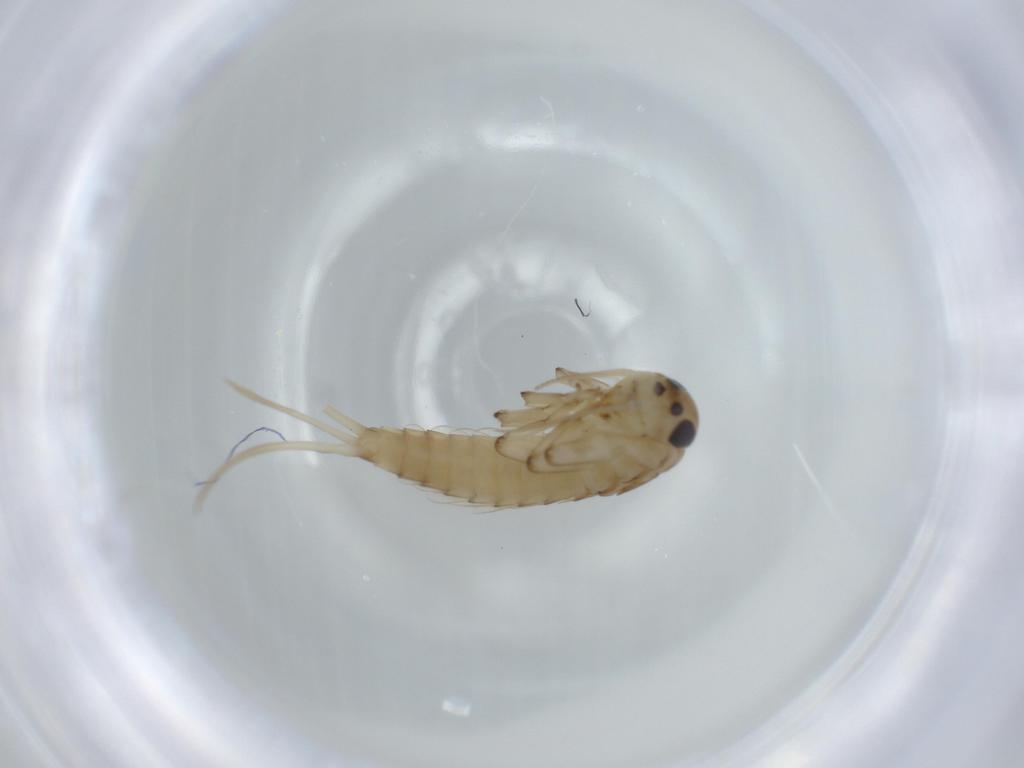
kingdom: Animalia
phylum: Arthropoda
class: Insecta
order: Ephemeroptera
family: Baetidae
